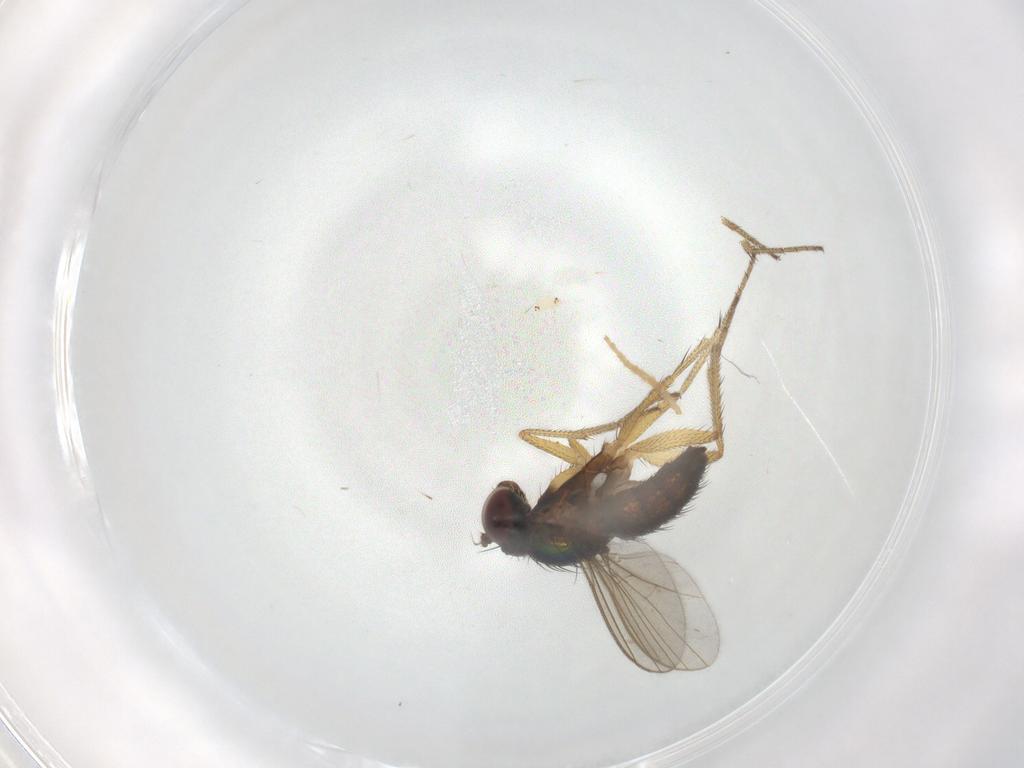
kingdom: Animalia
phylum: Arthropoda
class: Insecta
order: Diptera
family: Dolichopodidae
